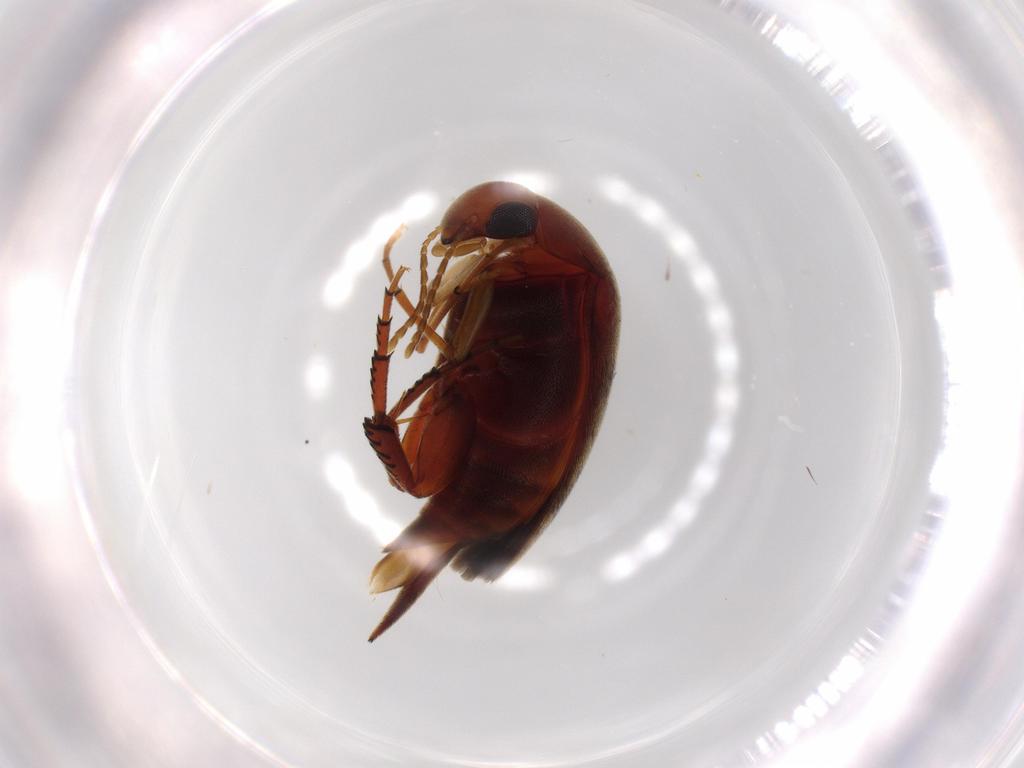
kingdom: Animalia
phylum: Arthropoda
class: Insecta
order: Coleoptera
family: Chrysomelidae
